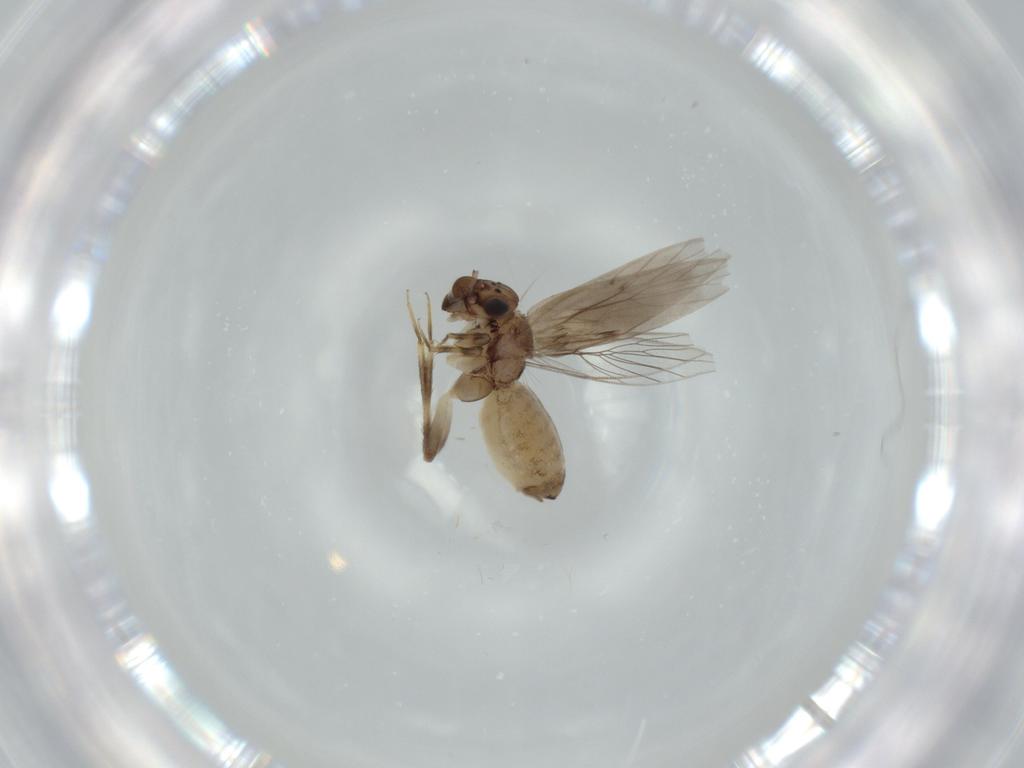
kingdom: Animalia
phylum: Arthropoda
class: Insecta
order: Psocodea
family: Lepidopsocidae
